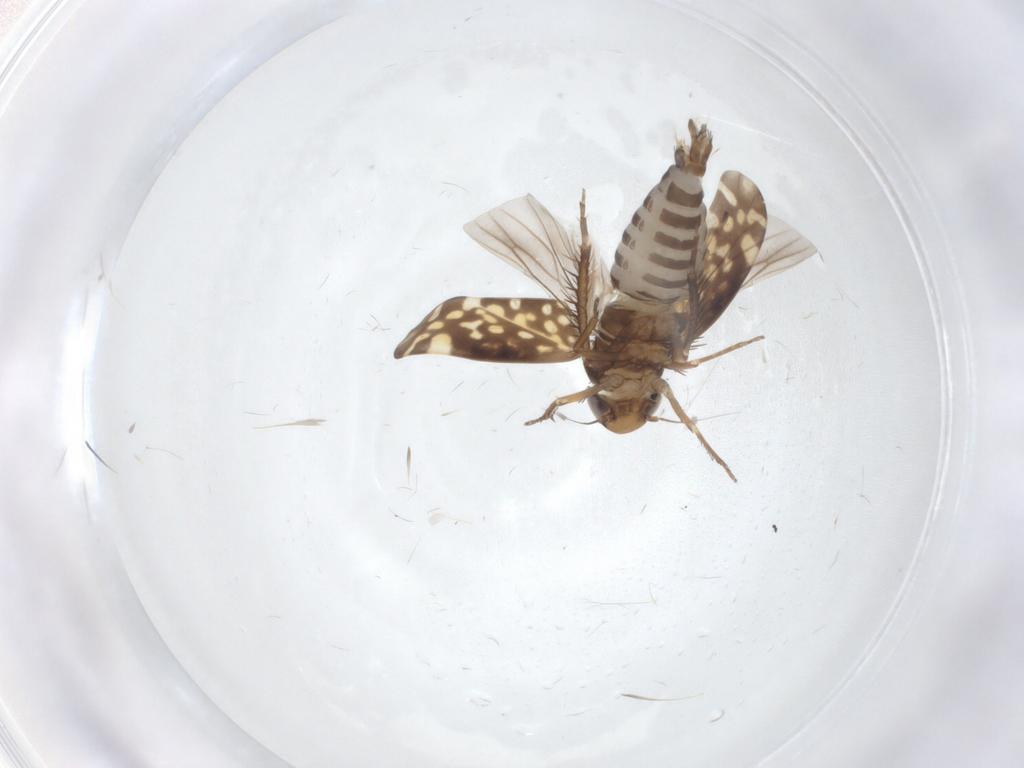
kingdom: Animalia
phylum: Arthropoda
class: Insecta
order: Hemiptera
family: Cicadellidae
